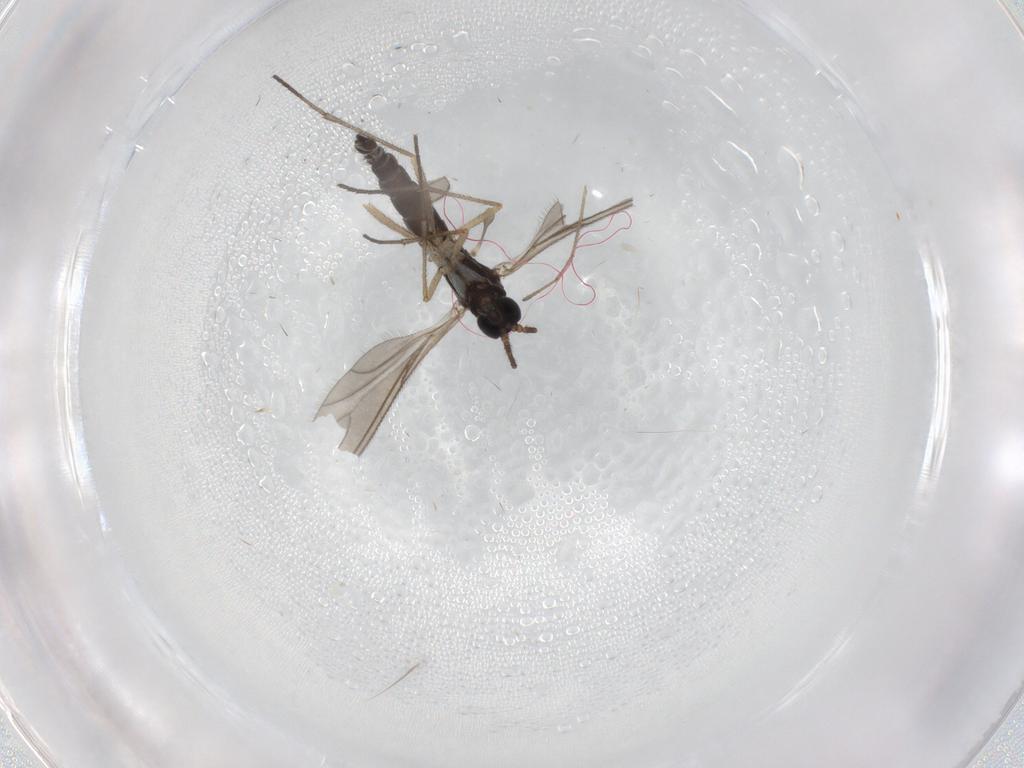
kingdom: Animalia
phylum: Arthropoda
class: Insecta
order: Diptera
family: Sciaridae
